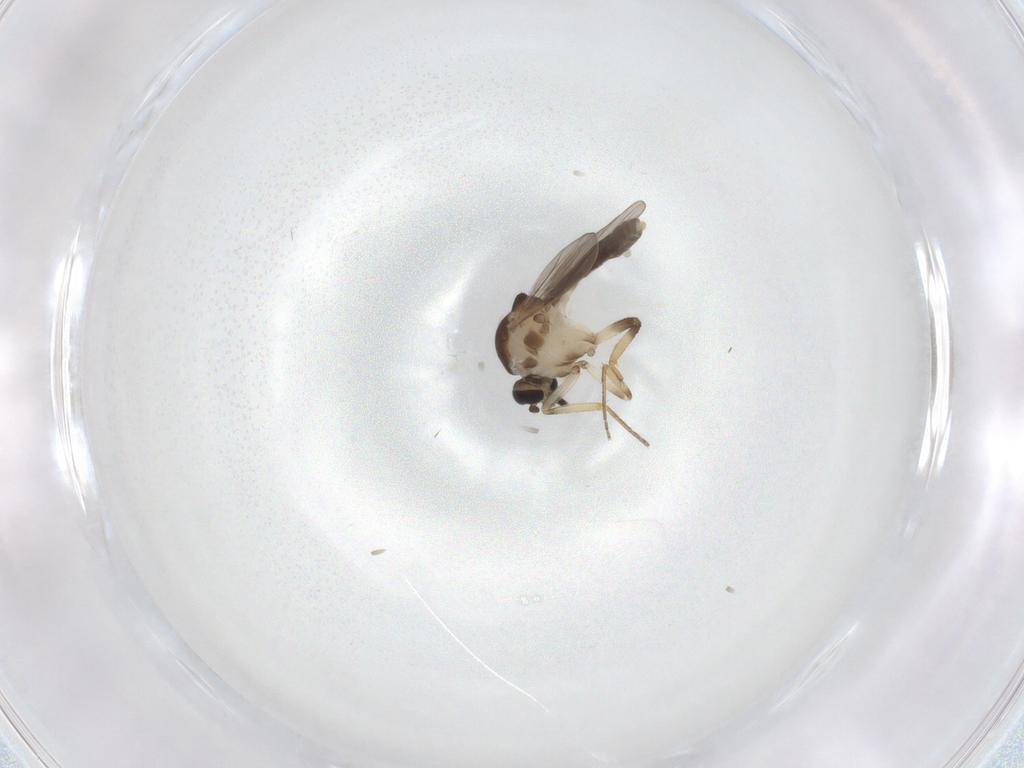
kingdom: Animalia
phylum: Arthropoda
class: Insecta
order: Diptera
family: Ceratopogonidae
